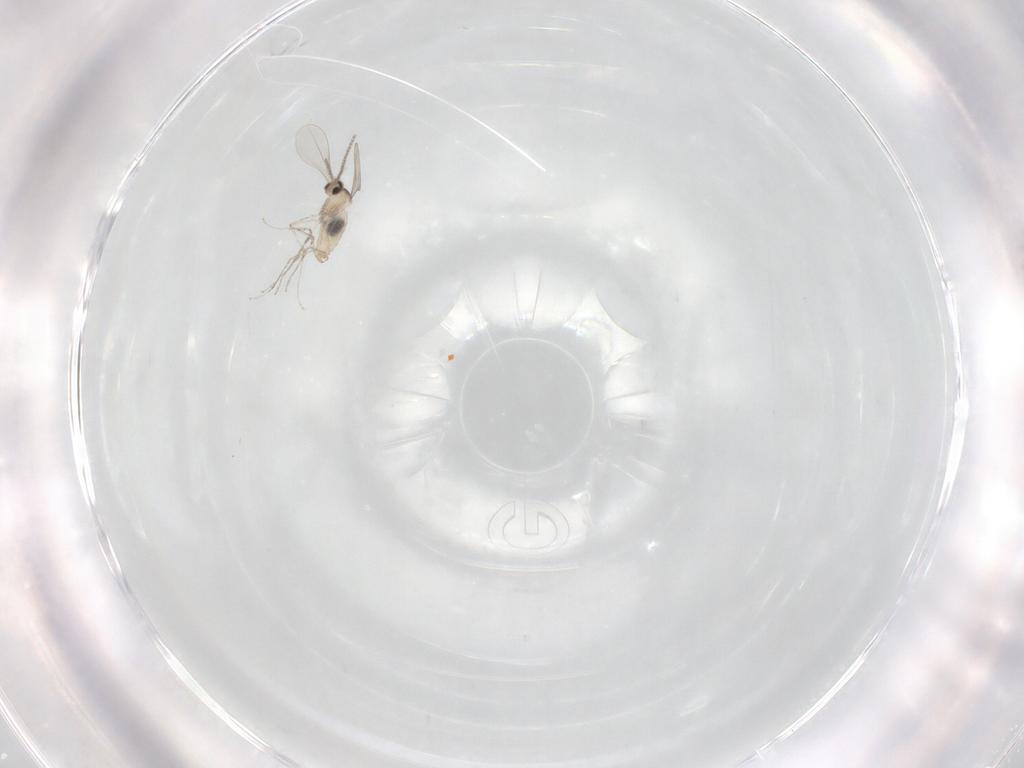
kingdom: Animalia
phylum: Arthropoda
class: Insecta
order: Diptera
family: Cecidomyiidae
